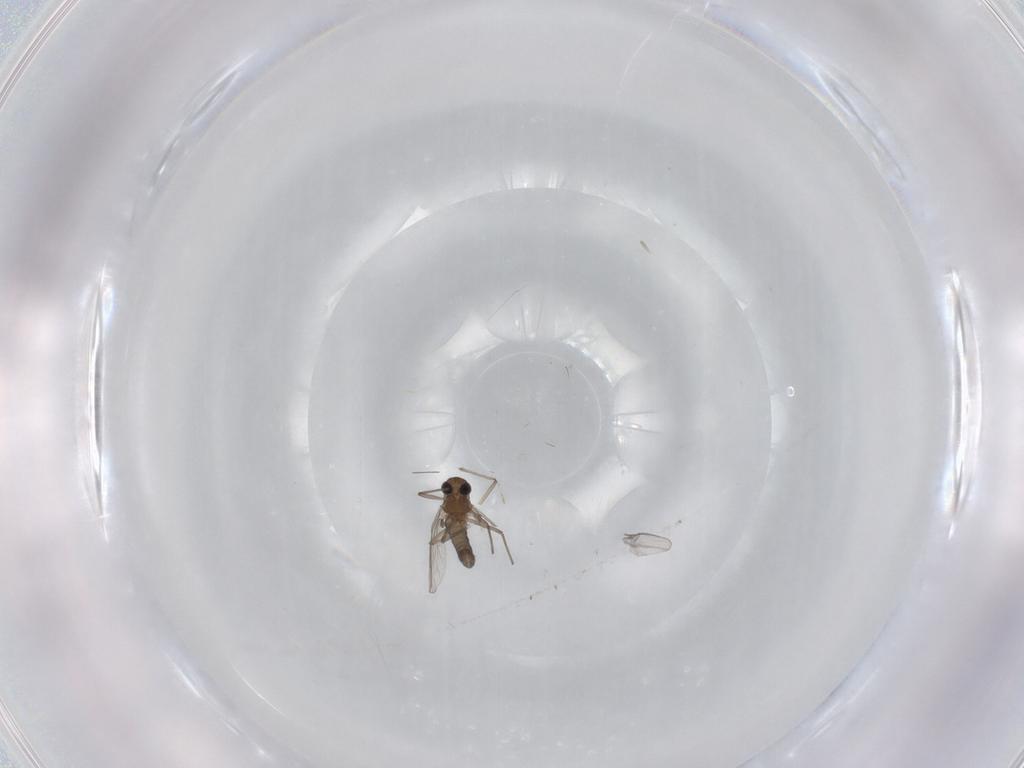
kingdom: Animalia
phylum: Arthropoda
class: Insecta
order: Diptera
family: Chironomidae
